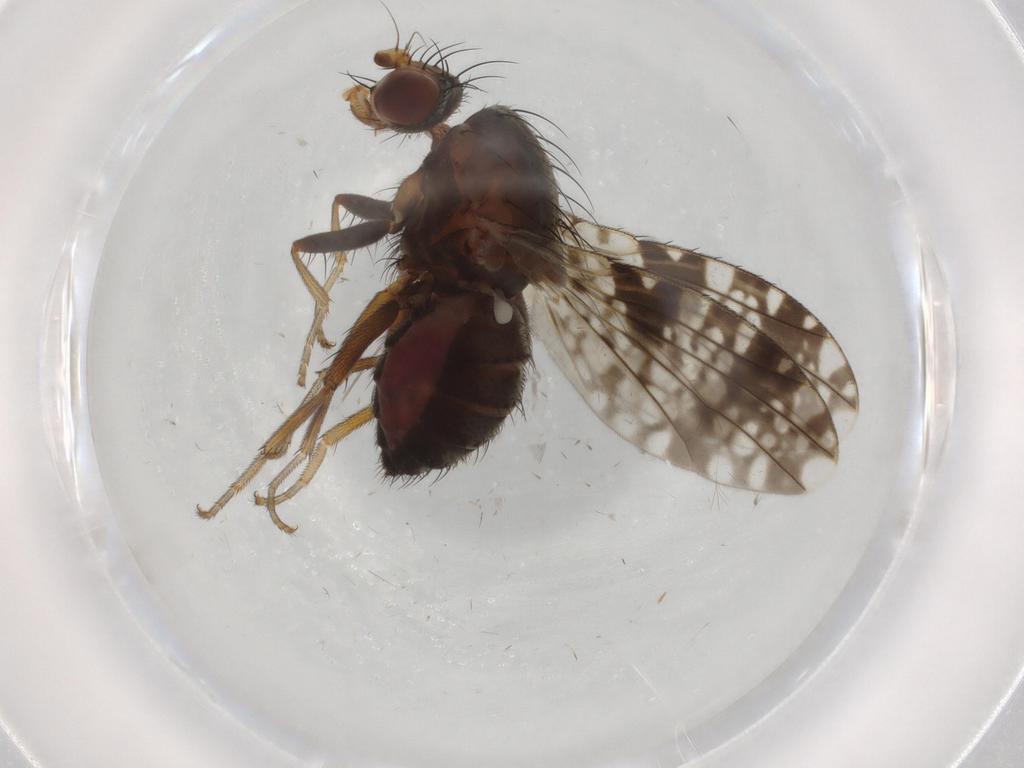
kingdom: Animalia
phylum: Arthropoda
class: Insecta
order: Diptera
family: Tephritidae
